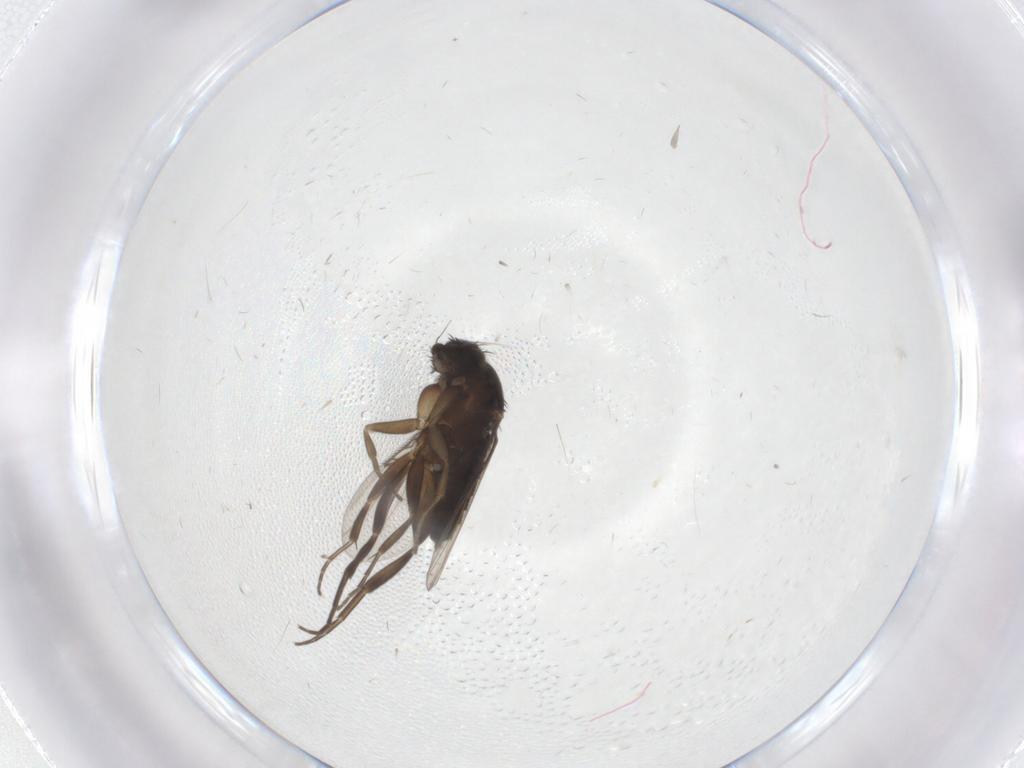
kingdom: Animalia
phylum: Arthropoda
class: Insecta
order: Diptera
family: Phoridae
